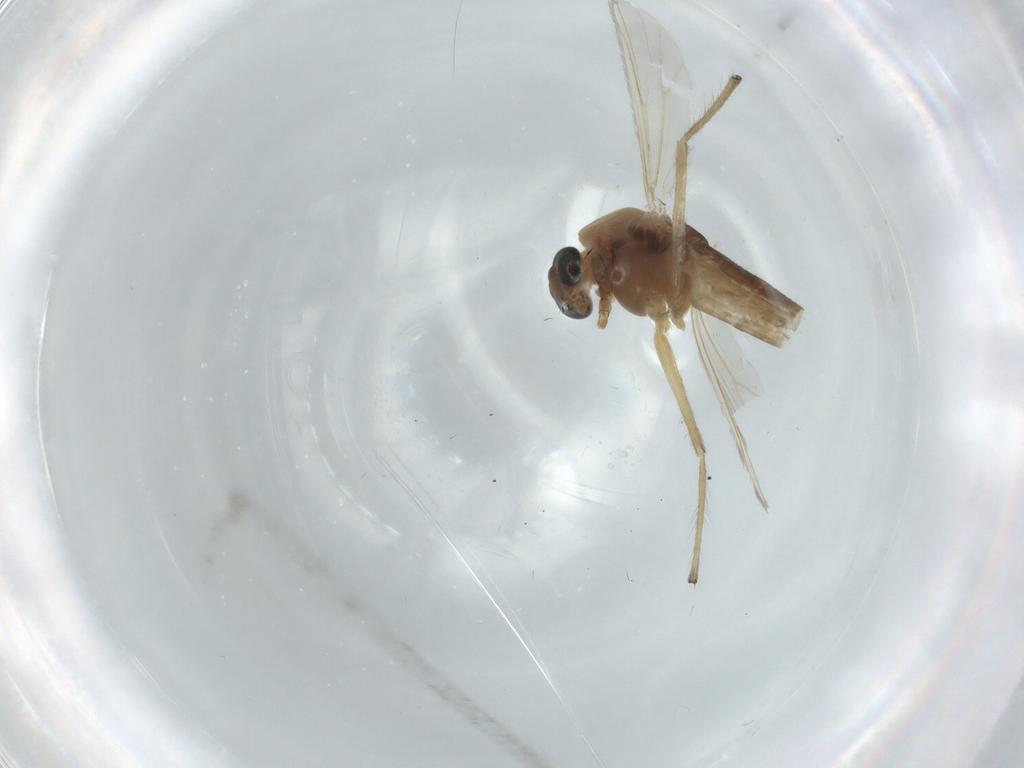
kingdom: Animalia
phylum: Arthropoda
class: Insecta
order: Diptera
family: Chironomidae
